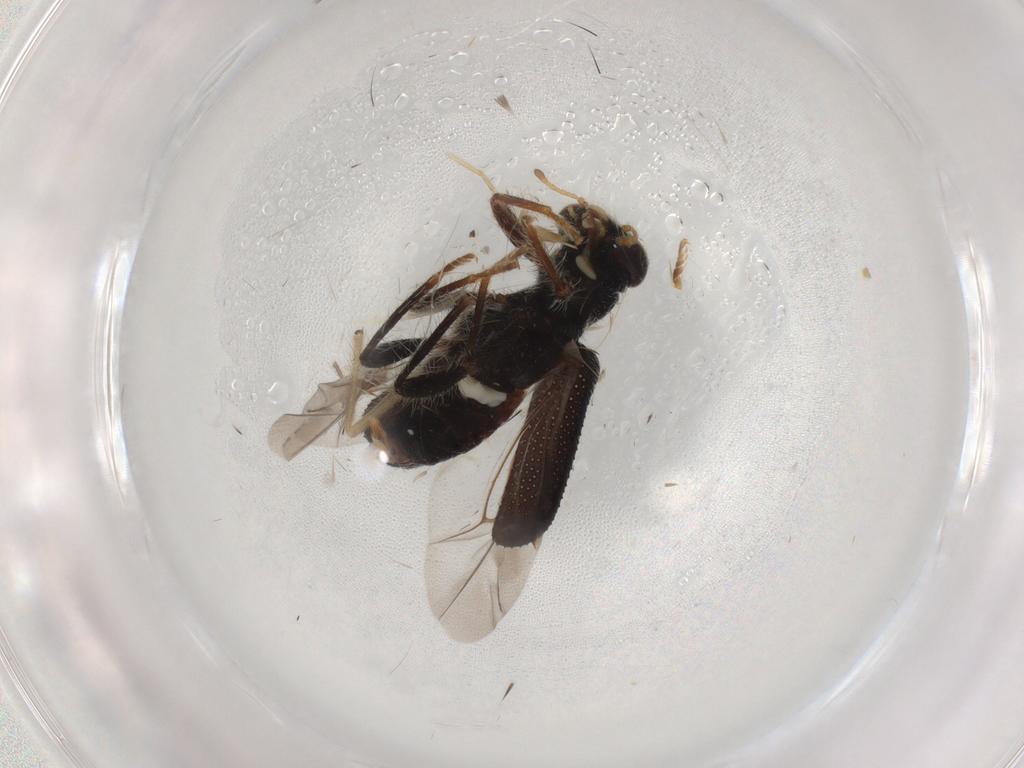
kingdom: Animalia
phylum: Arthropoda
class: Insecta
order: Coleoptera
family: Cleridae
